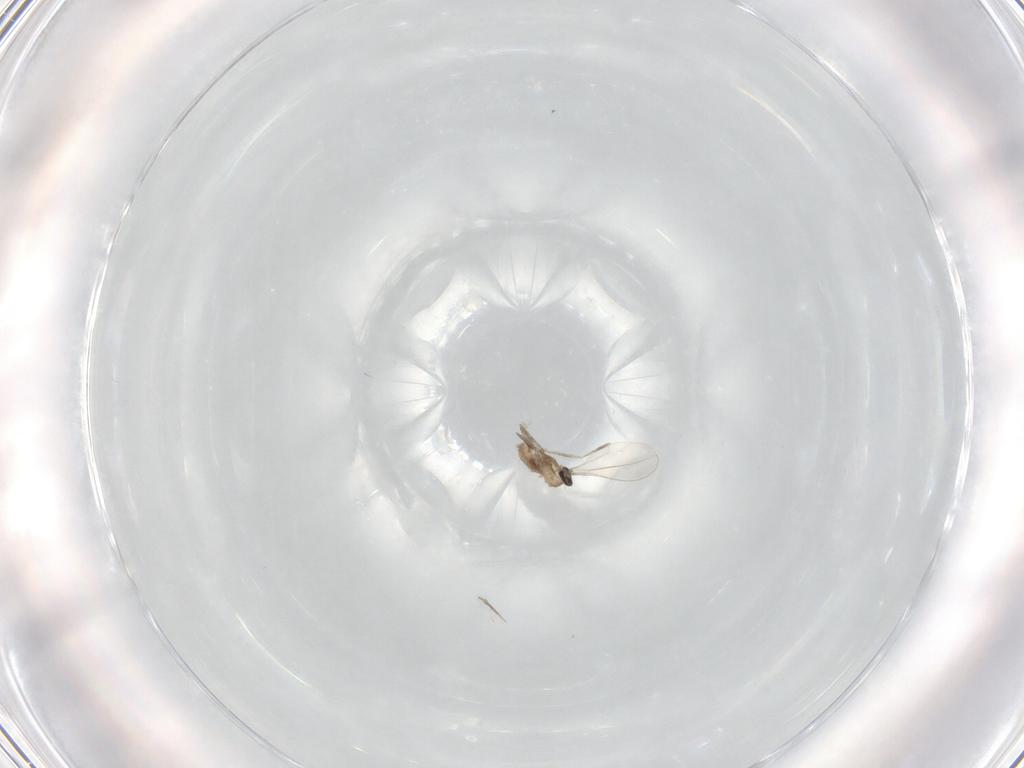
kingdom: Animalia
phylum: Arthropoda
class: Insecta
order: Diptera
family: Cecidomyiidae
